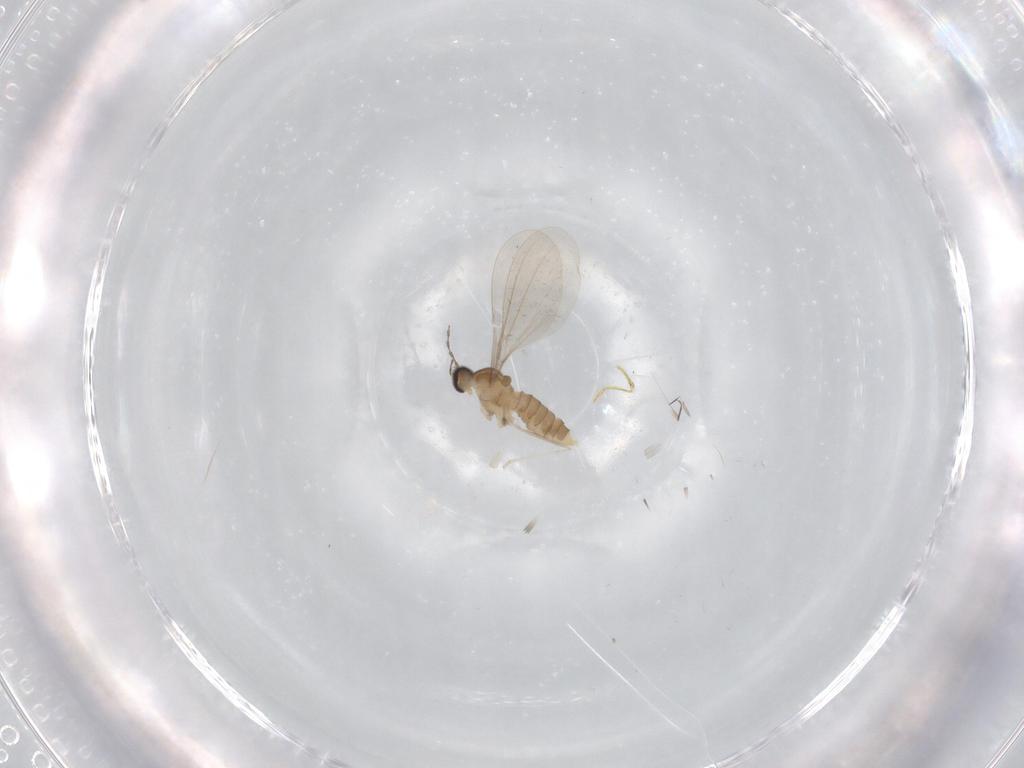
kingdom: Animalia
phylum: Arthropoda
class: Insecta
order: Diptera
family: Cecidomyiidae
